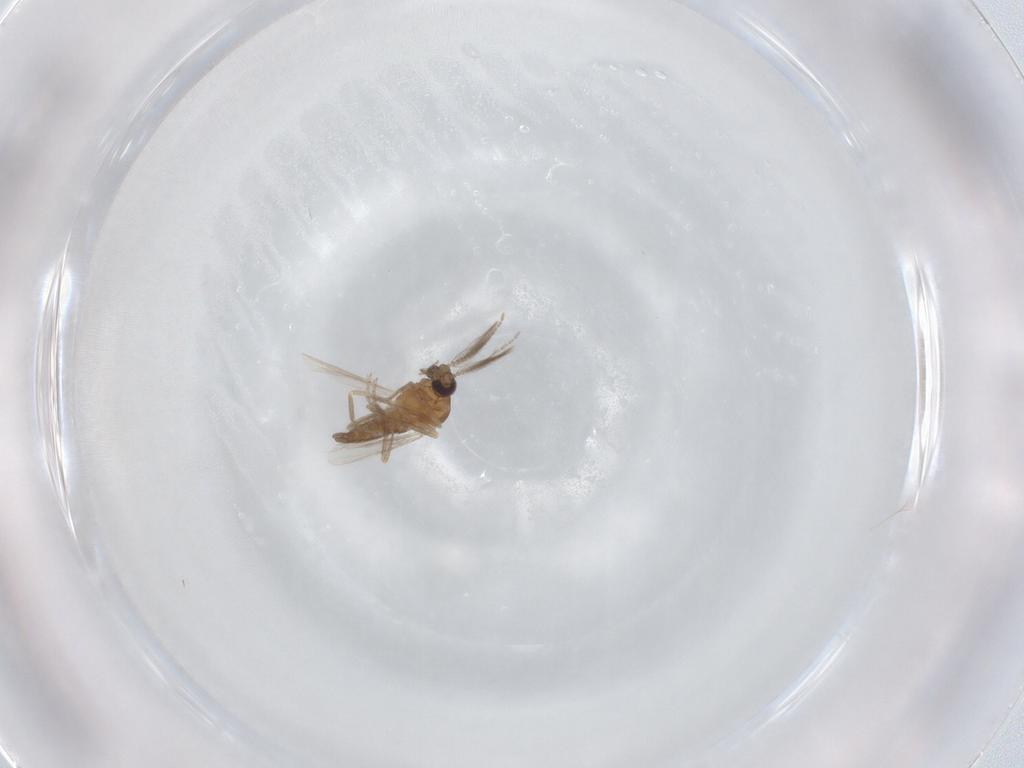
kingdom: Animalia
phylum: Arthropoda
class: Insecta
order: Diptera
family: Ceratopogonidae
